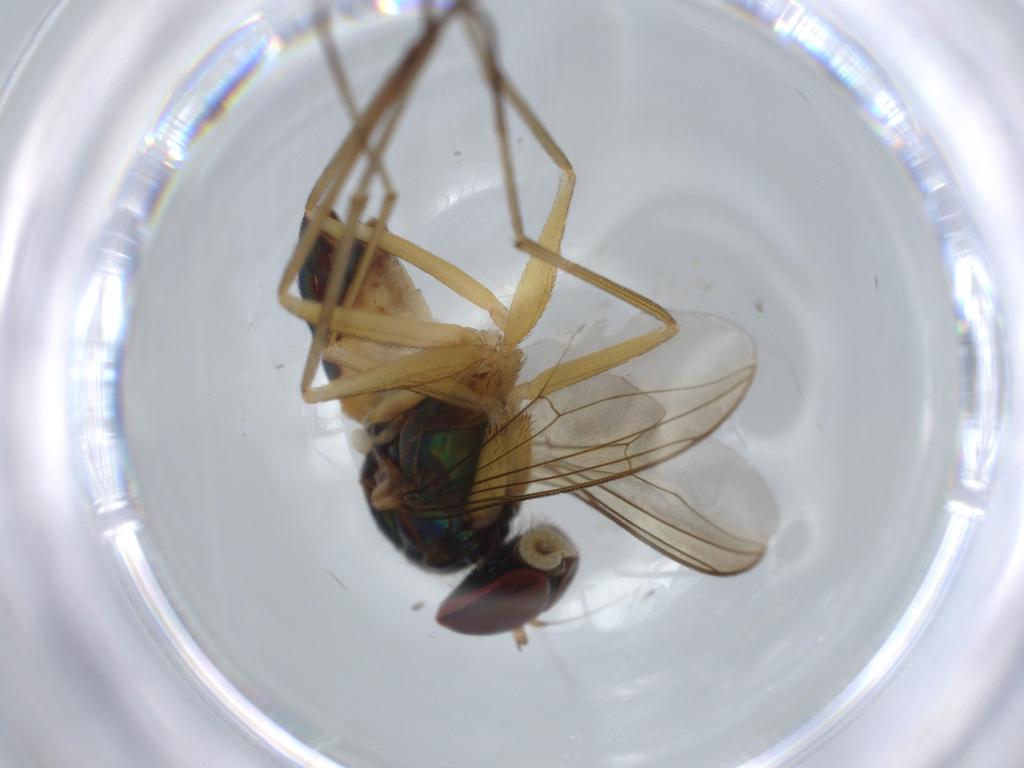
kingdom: Animalia
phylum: Arthropoda
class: Insecta
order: Diptera
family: Dolichopodidae
